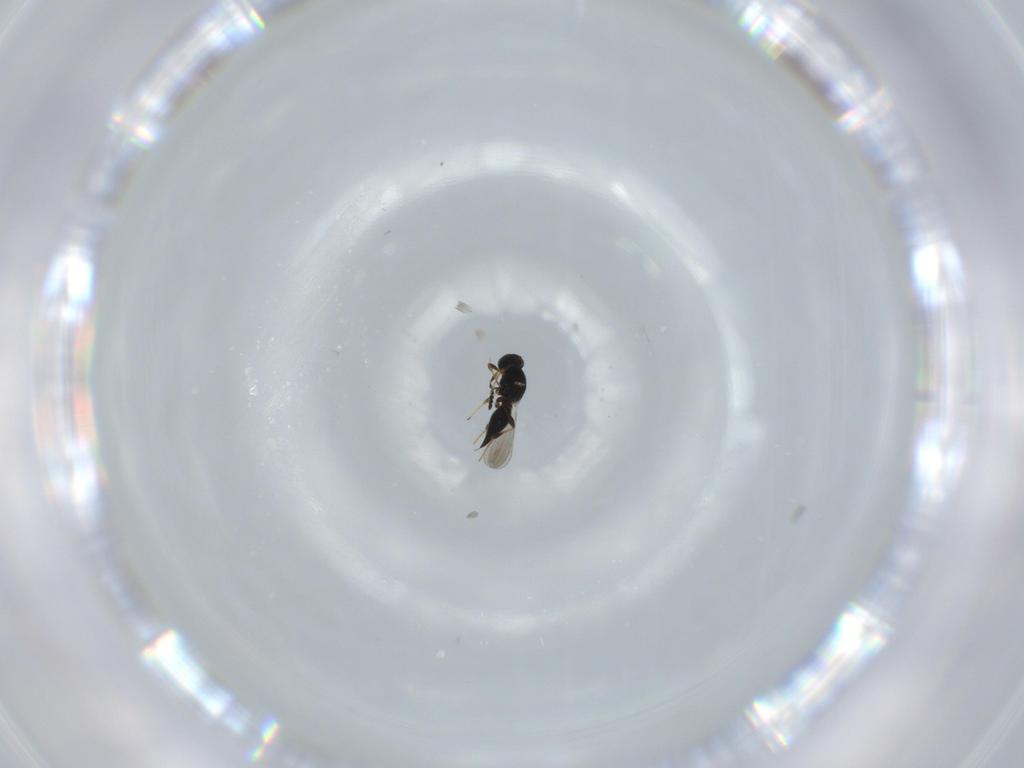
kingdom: Animalia
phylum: Arthropoda
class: Insecta
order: Hymenoptera
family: Platygastridae
